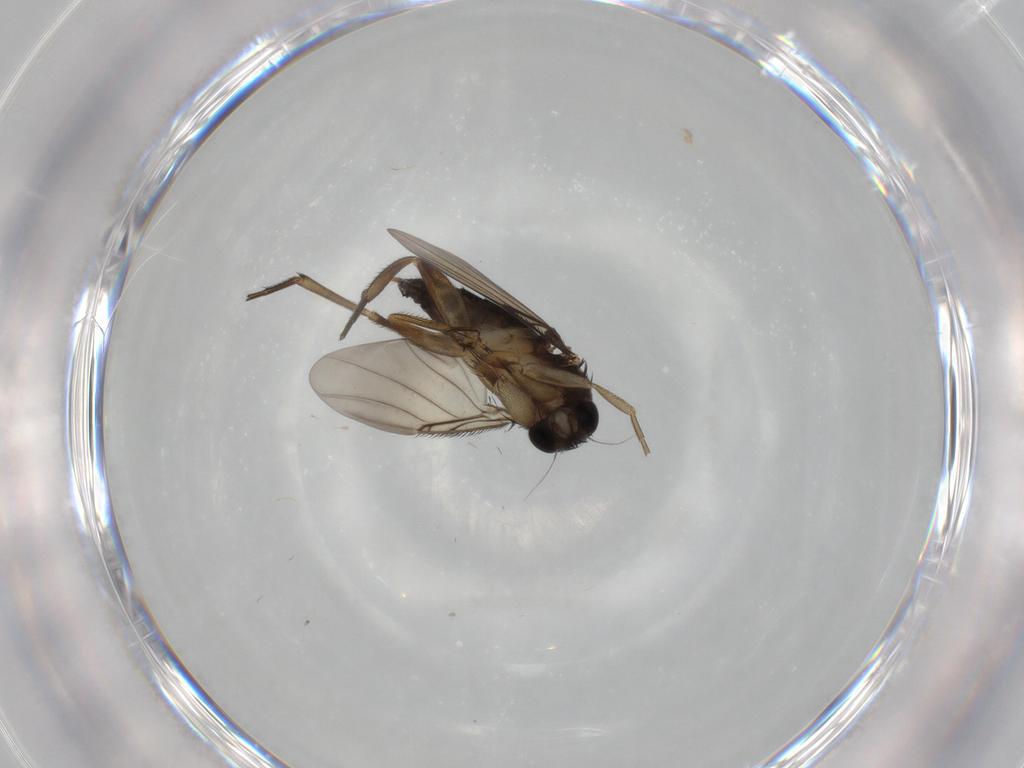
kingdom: Animalia
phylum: Arthropoda
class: Insecta
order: Diptera
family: Phoridae
